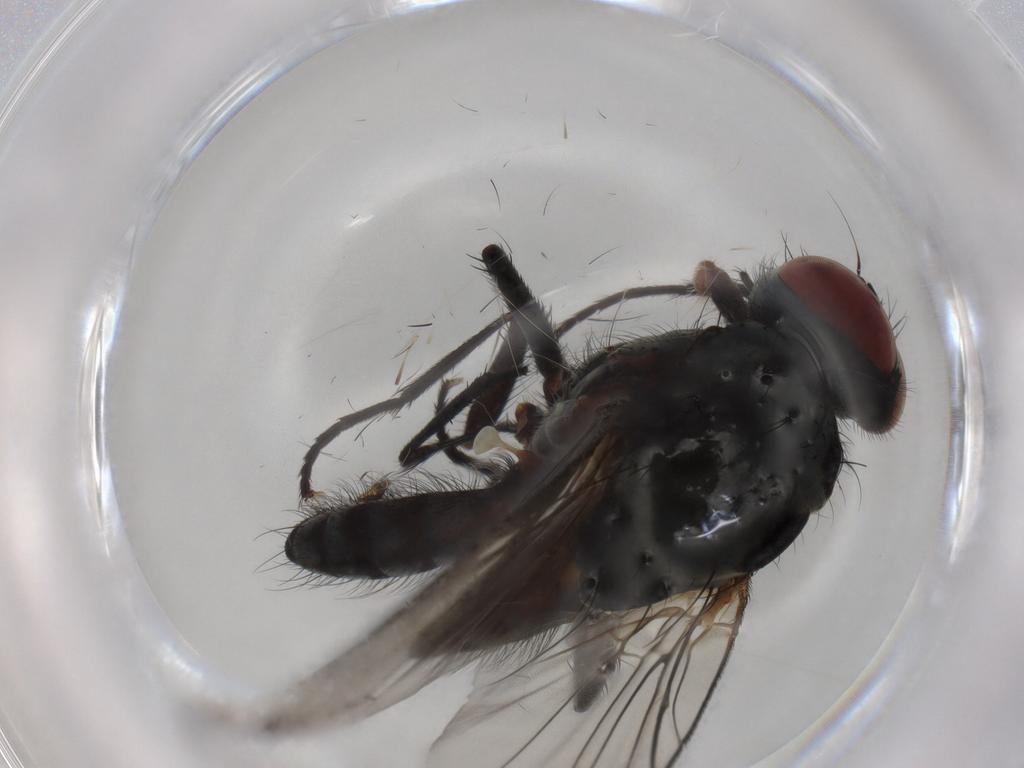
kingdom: Animalia
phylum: Arthropoda
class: Insecta
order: Diptera
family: Anthomyiidae
